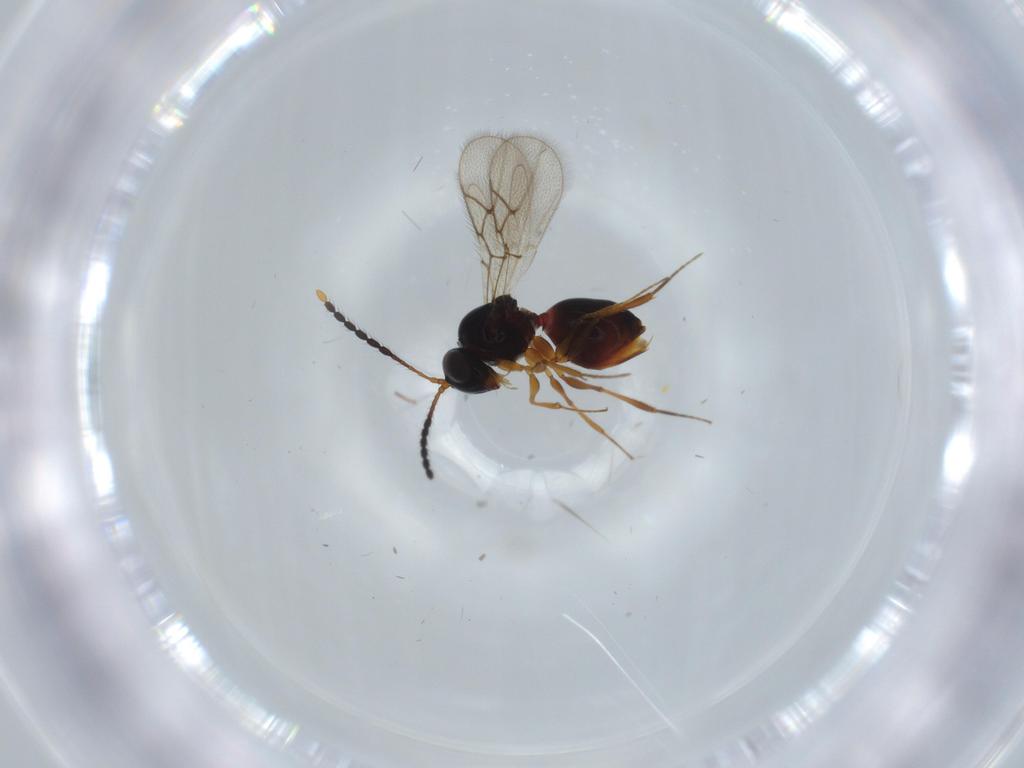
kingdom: Animalia
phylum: Arthropoda
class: Insecta
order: Hymenoptera
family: Figitidae
